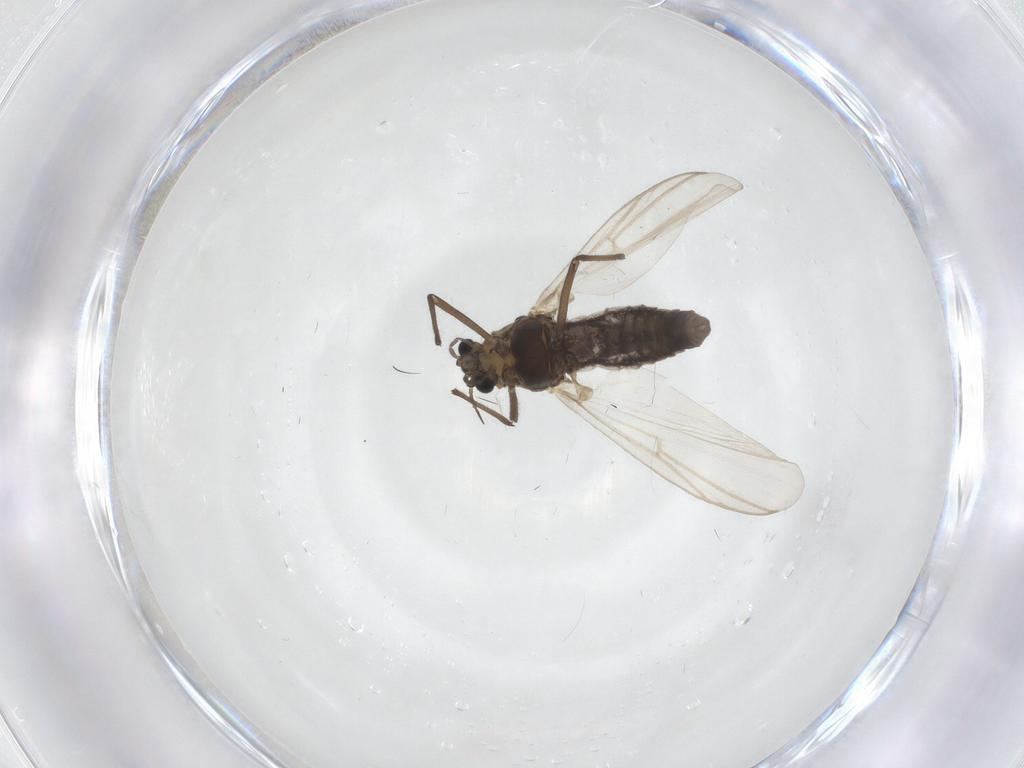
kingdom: Animalia
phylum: Arthropoda
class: Insecta
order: Diptera
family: Chironomidae
